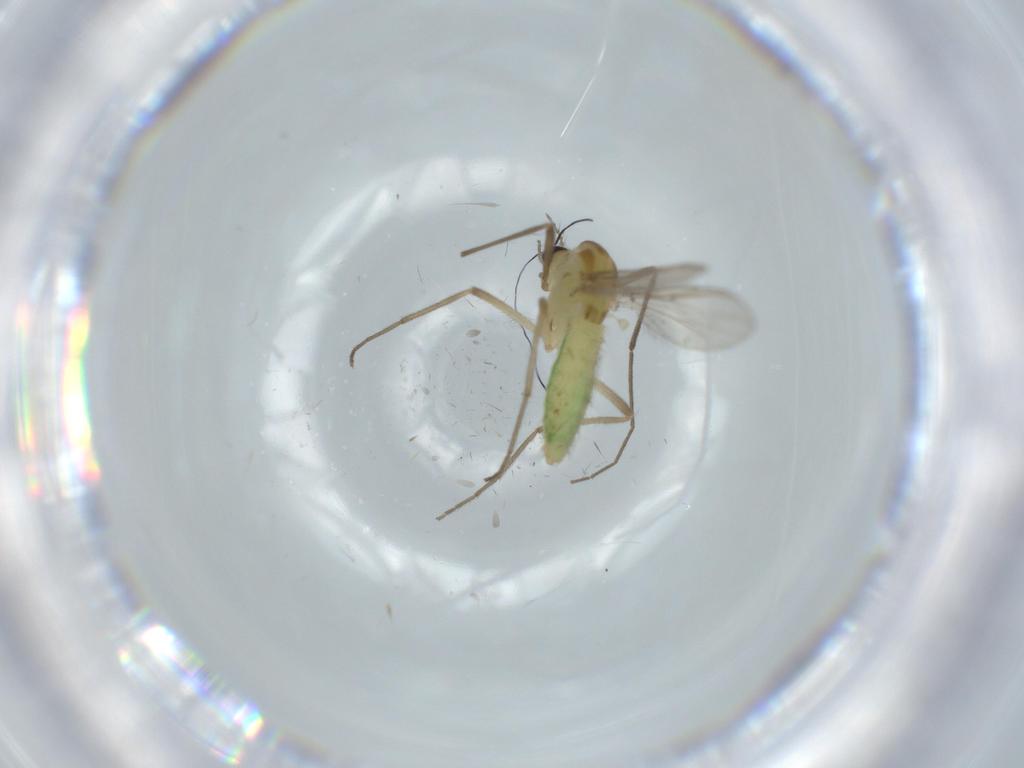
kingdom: Animalia
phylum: Arthropoda
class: Insecta
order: Diptera
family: Chironomidae
